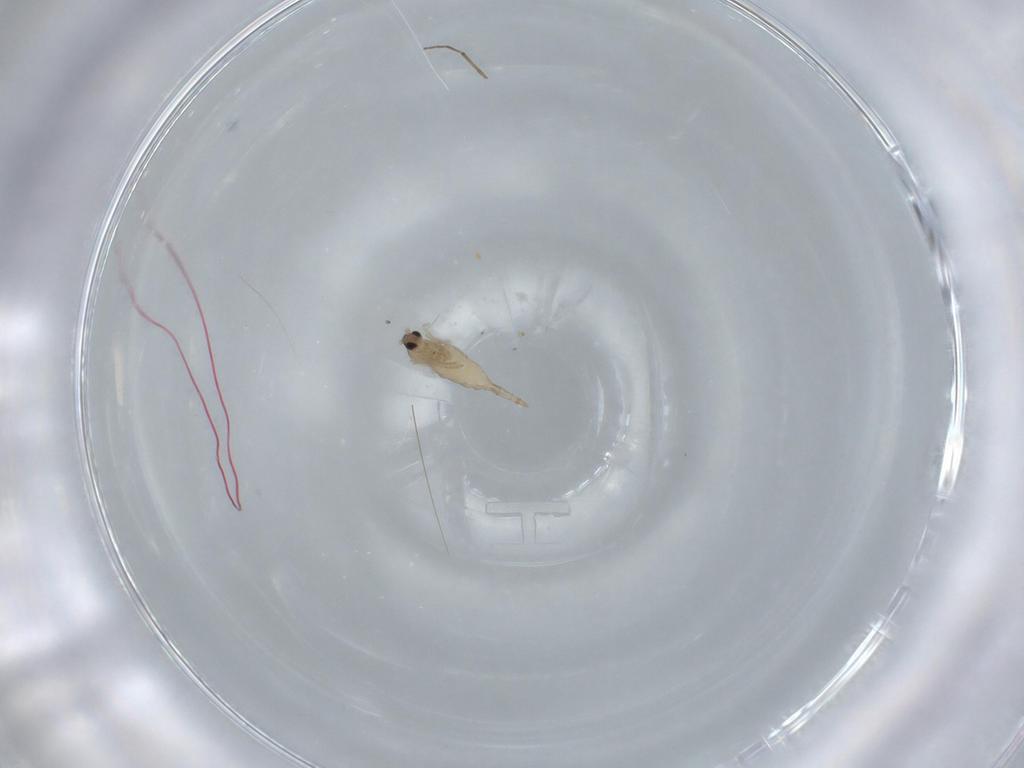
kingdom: Animalia
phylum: Arthropoda
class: Insecta
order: Diptera
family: Cecidomyiidae
